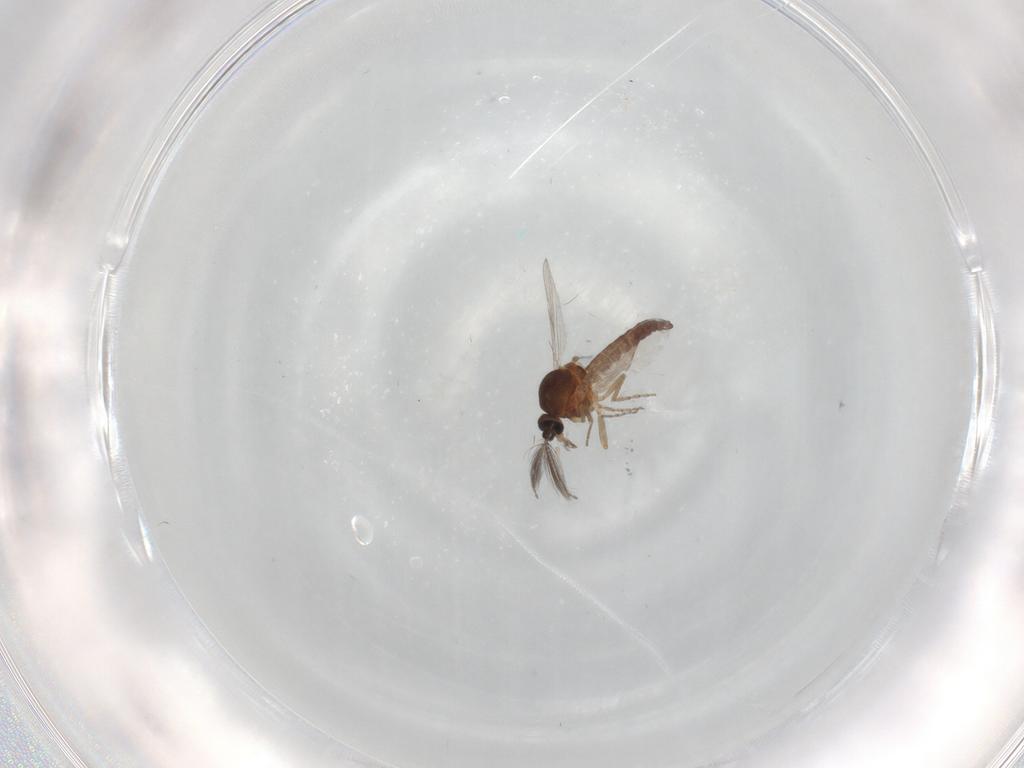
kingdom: Animalia
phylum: Arthropoda
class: Insecta
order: Diptera
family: Ceratopogonidae
